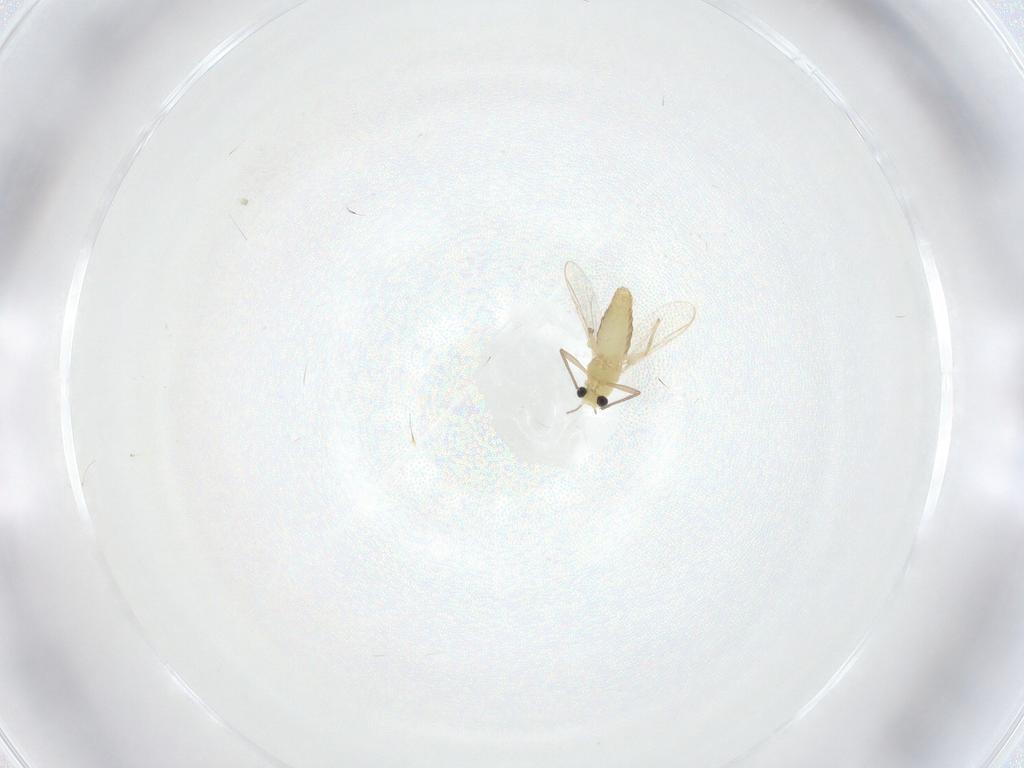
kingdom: Animalia
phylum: Arthropoda
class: Insecta
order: Diptera
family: Chironomidae
